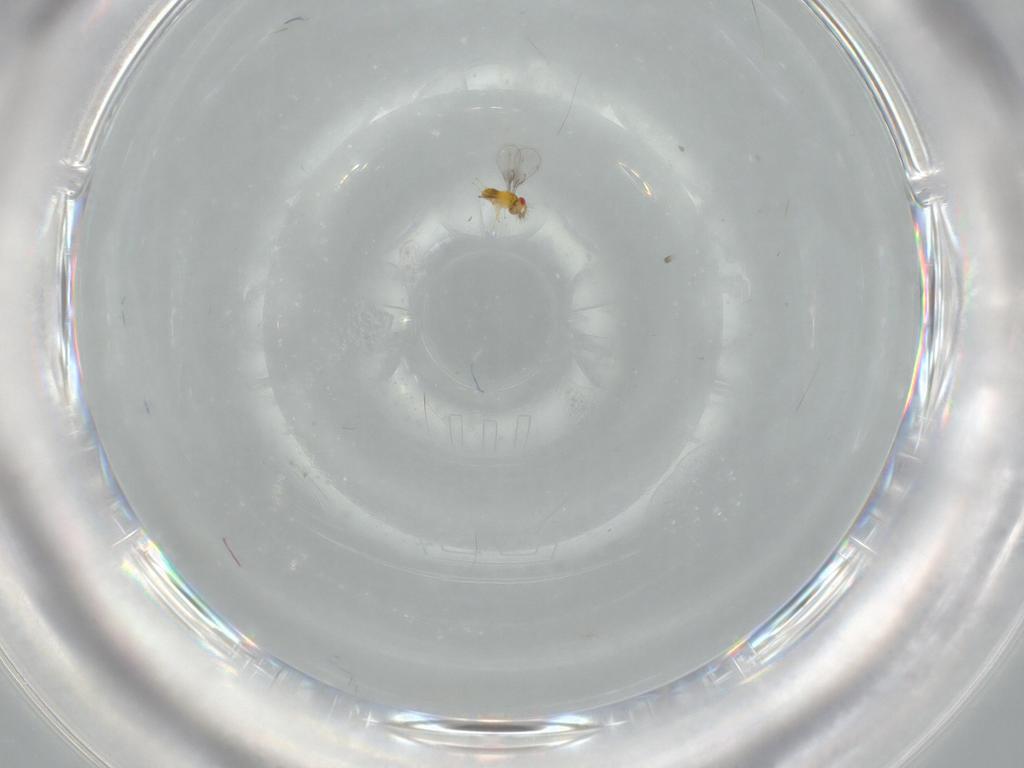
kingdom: Animalia
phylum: Arthropoda
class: Insecta
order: Hymenoptera
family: Trichogrammatidae
